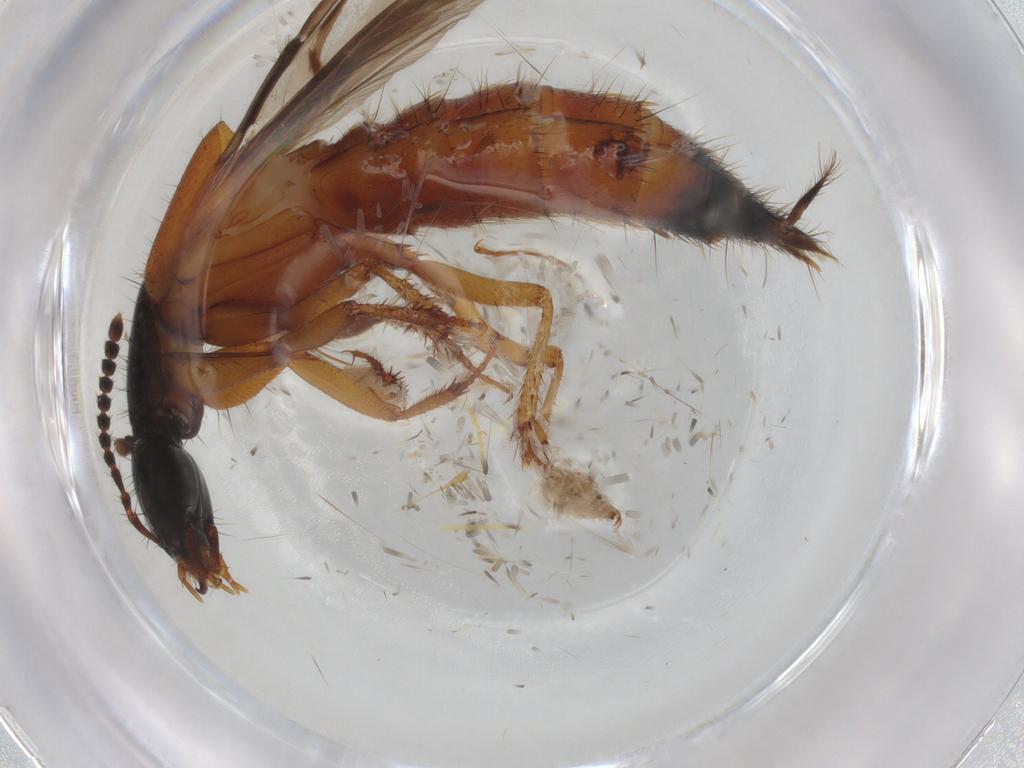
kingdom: Animalia
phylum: Arthropoda
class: Insecta
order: Coleoptera
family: Staphylinidae
